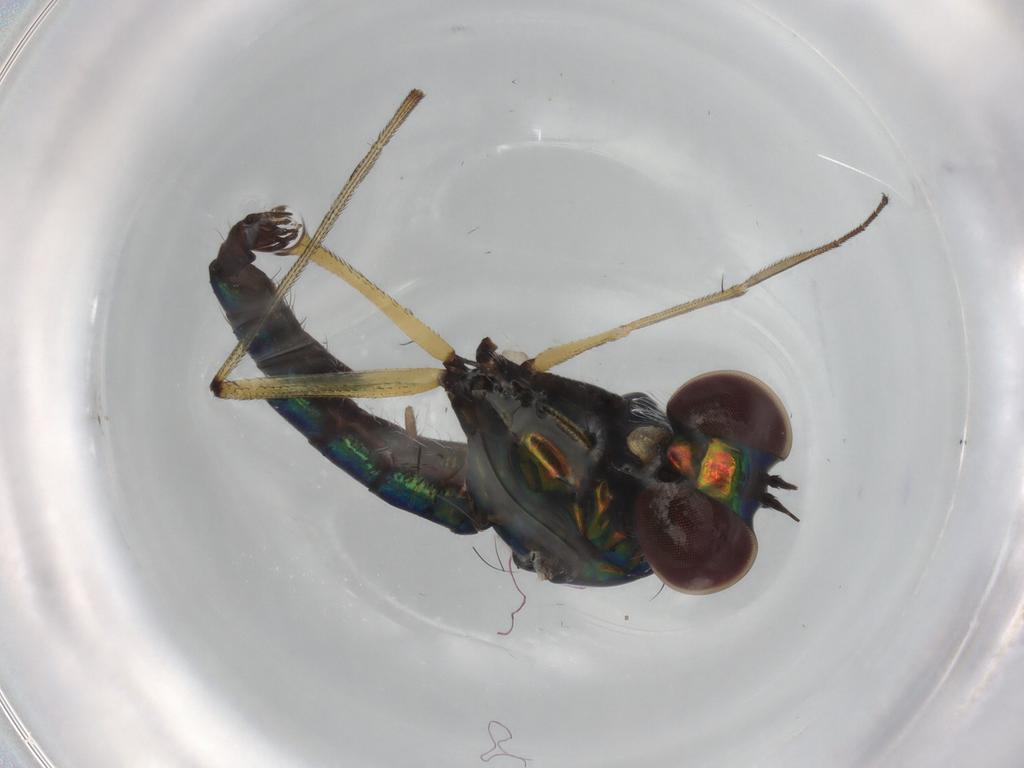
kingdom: Animalia
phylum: Arthropoda
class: Insecta
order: Diptera
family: Dolichopodidae
